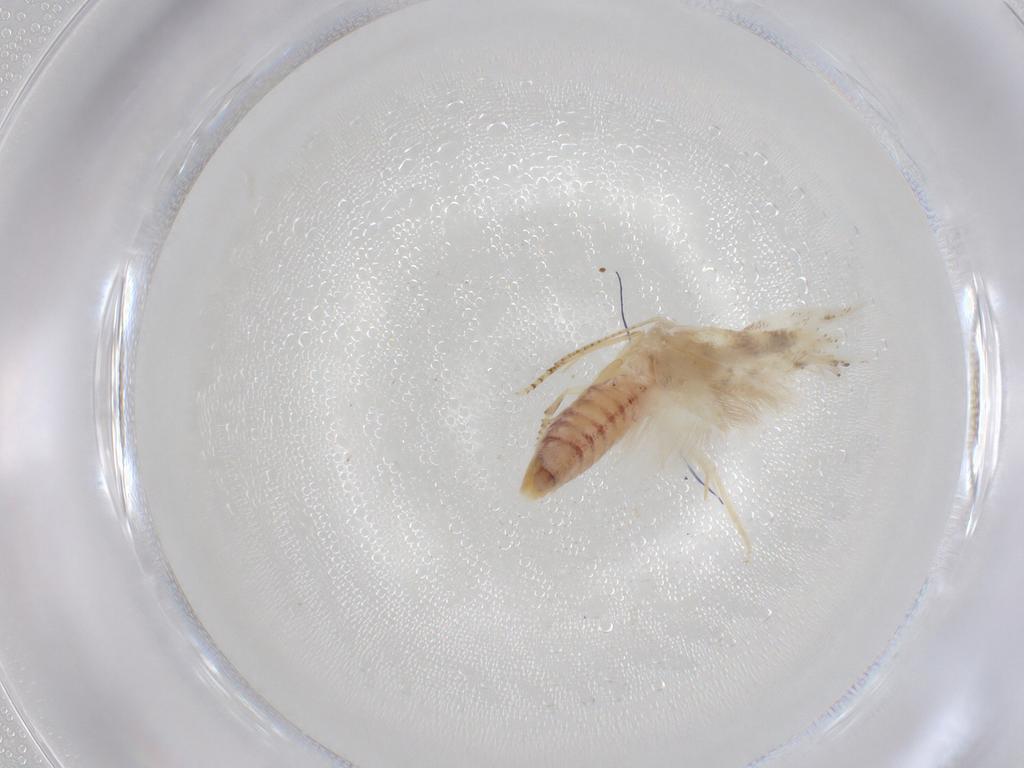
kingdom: Animalia
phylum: Arthropoda
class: Insecta
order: Lepidoptera
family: Bucculatricidae
